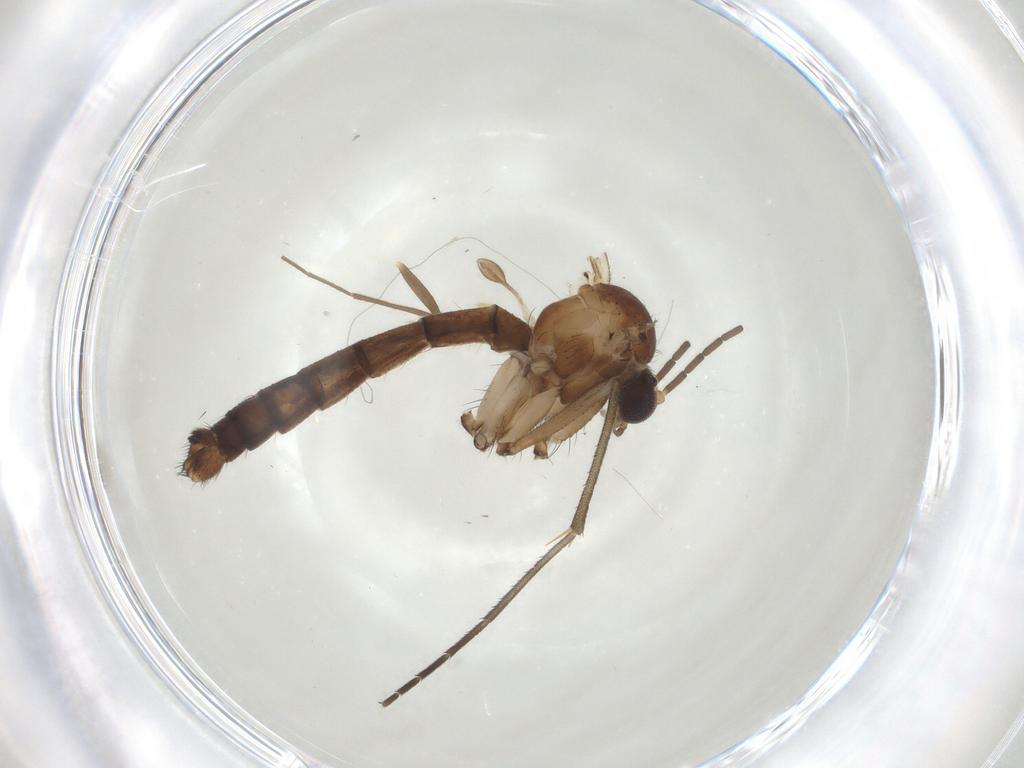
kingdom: Animalia
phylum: Arthropoda
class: Insecta
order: Diptera
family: Mycetophilidae
